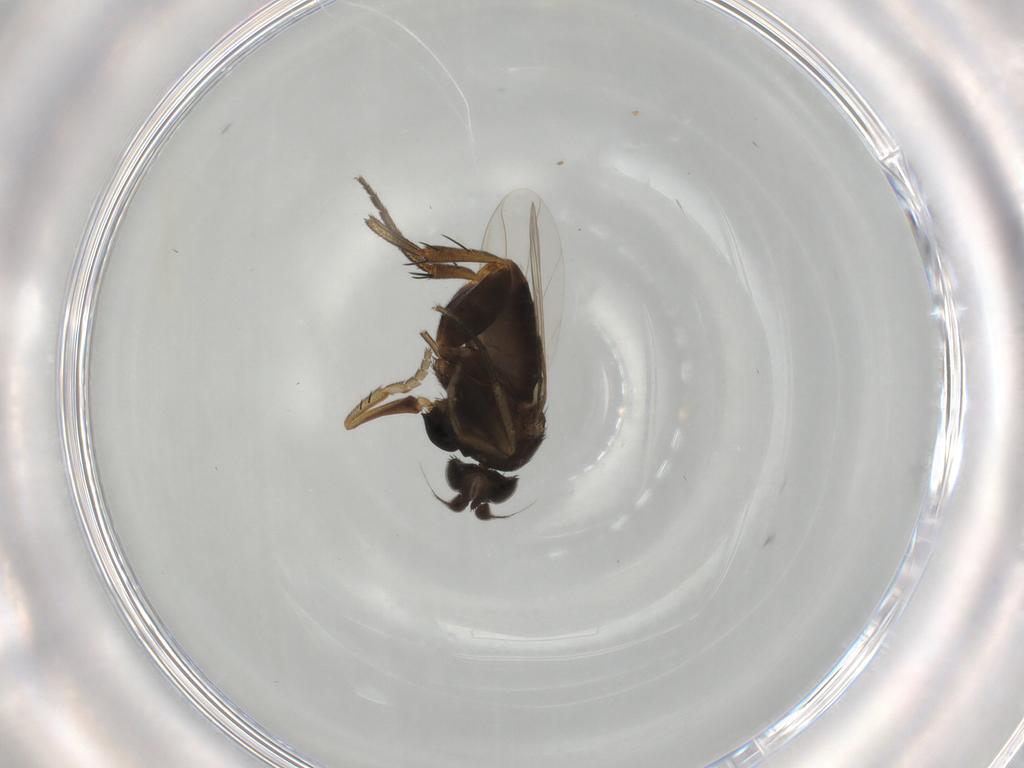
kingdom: Animalia
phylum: Arthropoda
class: Insecta
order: Diptera
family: Phoridae
